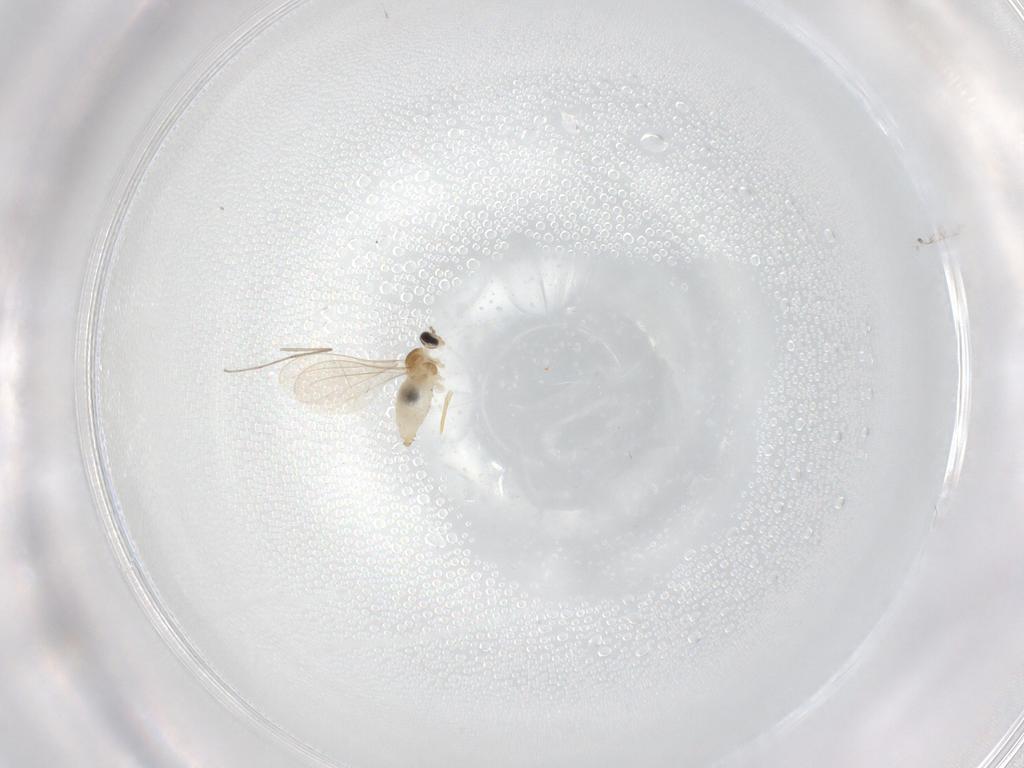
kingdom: Animalia
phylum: Arthropoda
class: Insecta
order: Diptera
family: Cecidomyiidae
